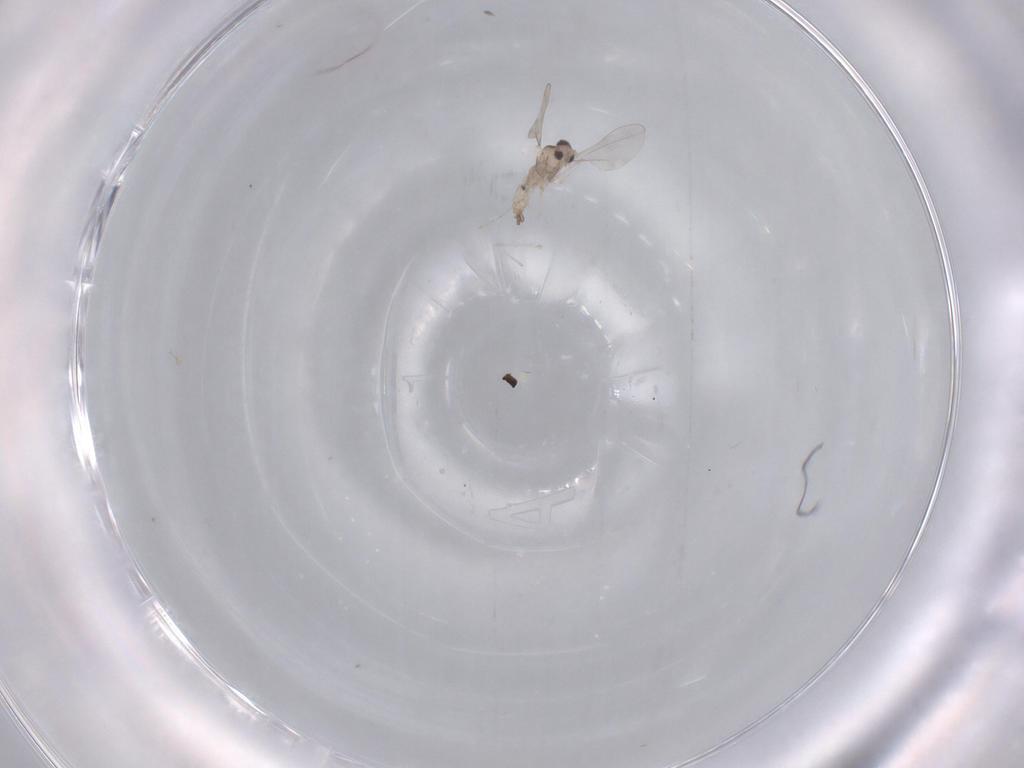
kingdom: Animalia
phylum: Arthropoda
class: Insecta
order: Diptera
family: Cecidomyiidae
